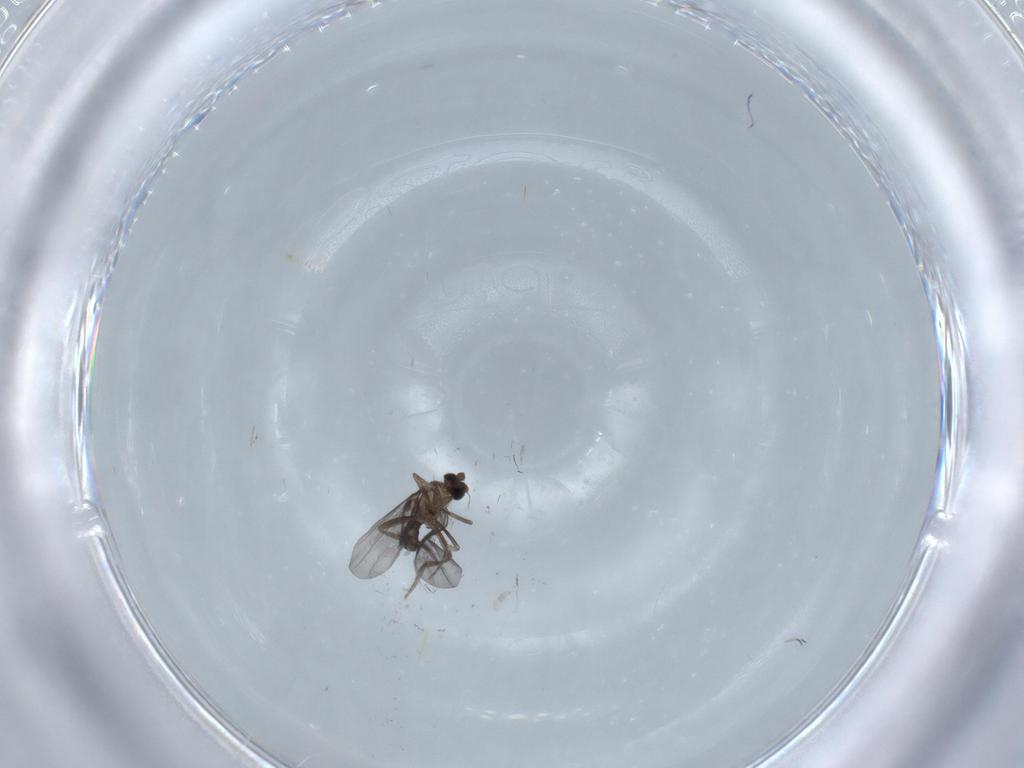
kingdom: Animalia
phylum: Arthropoda
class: Insecta
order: Diptera
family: Phoridae
